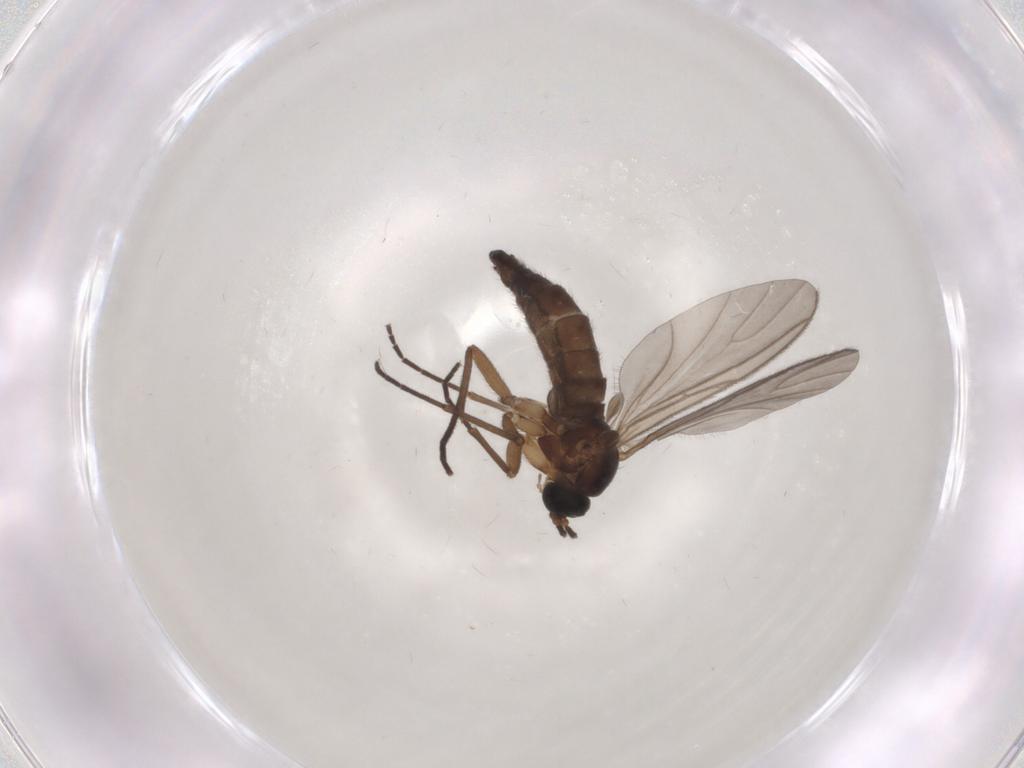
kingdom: Animalia
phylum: Arthropoda
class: Insecta
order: Diptera
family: Sciaridae
